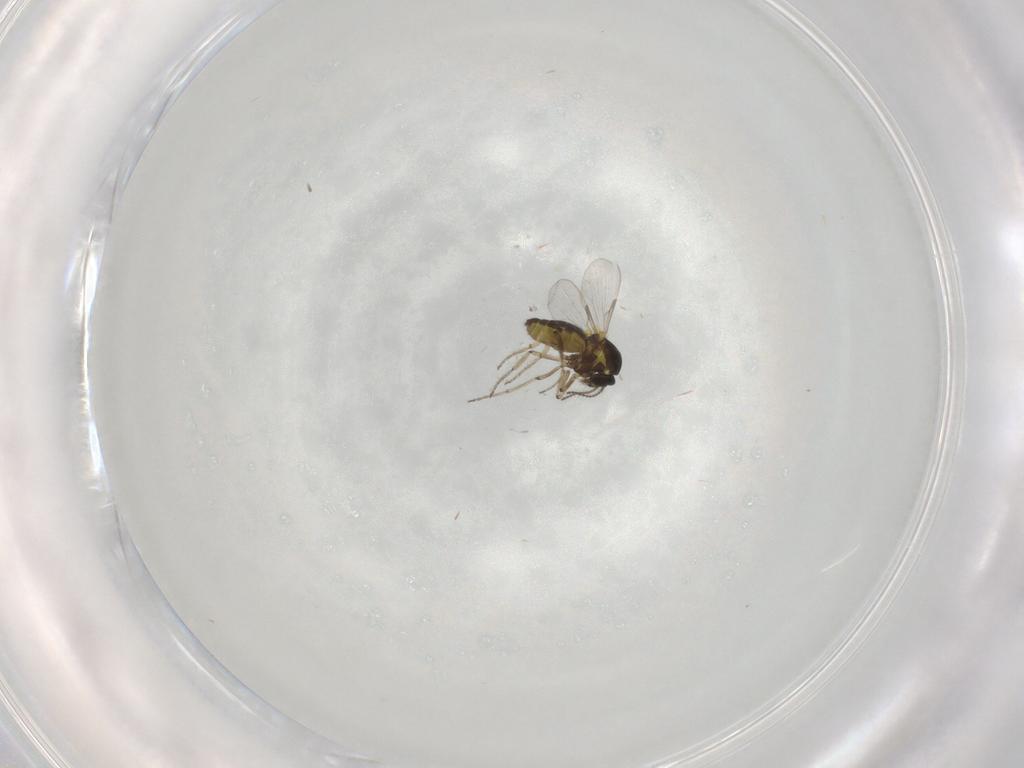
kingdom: Animalia
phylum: Arthropoda
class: Insecta
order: Diptera
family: Ceratopogonidae
